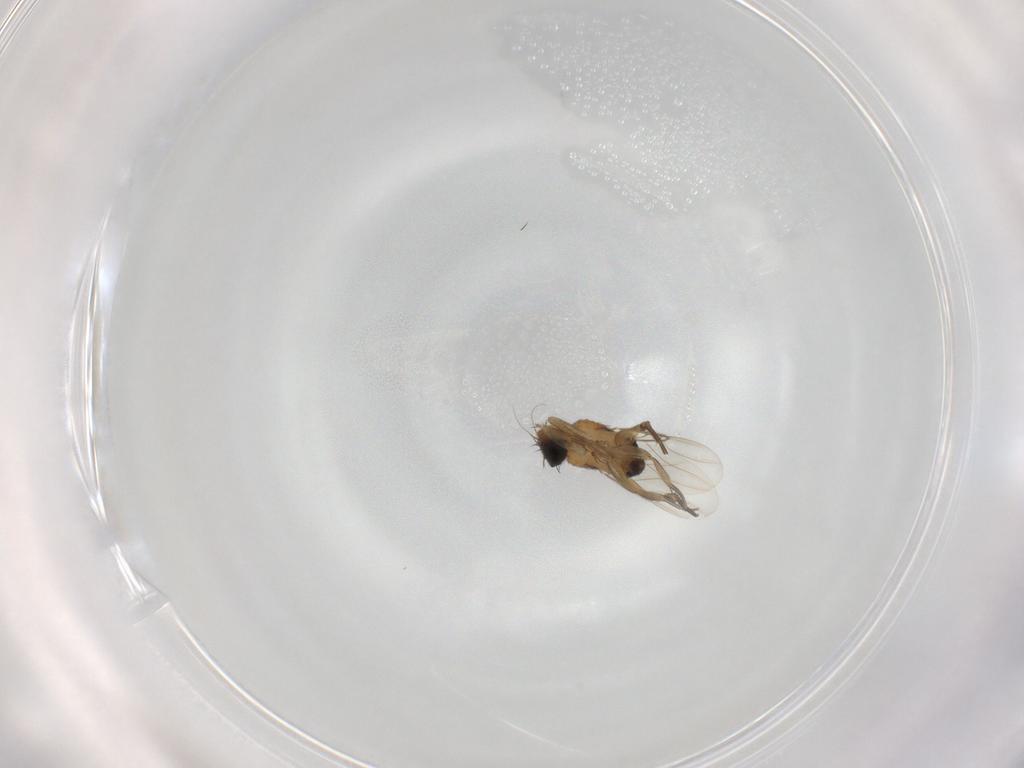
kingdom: Animalia
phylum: Arthropoda
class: Insecta
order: Diptera
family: Phoridae
